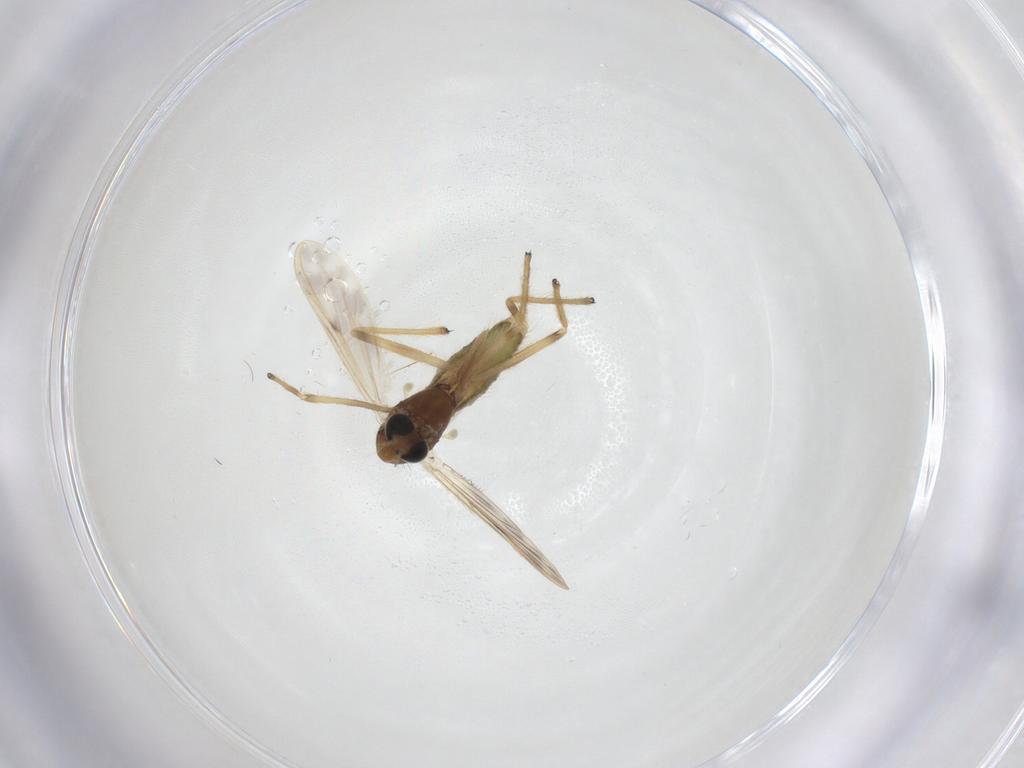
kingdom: Animalia
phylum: Arthropoda
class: Insecta
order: Diptera
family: Chironomidae
